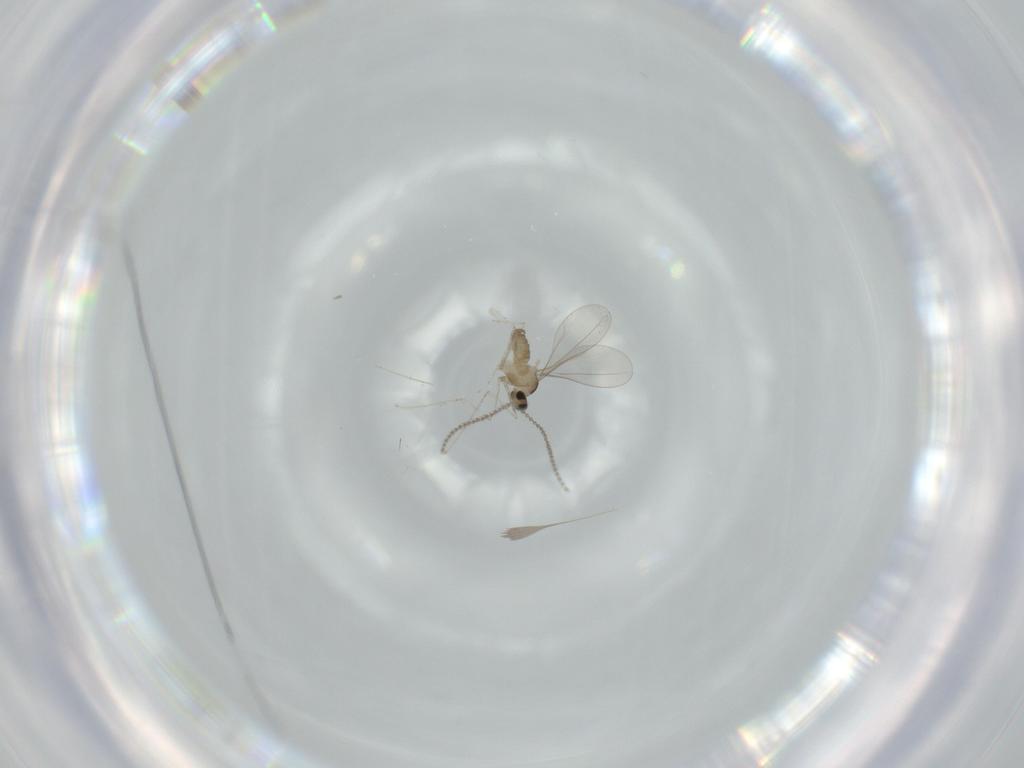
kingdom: Animalia
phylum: Arthropoda
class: Insecta
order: Diptera
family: Cecidomyiidae
